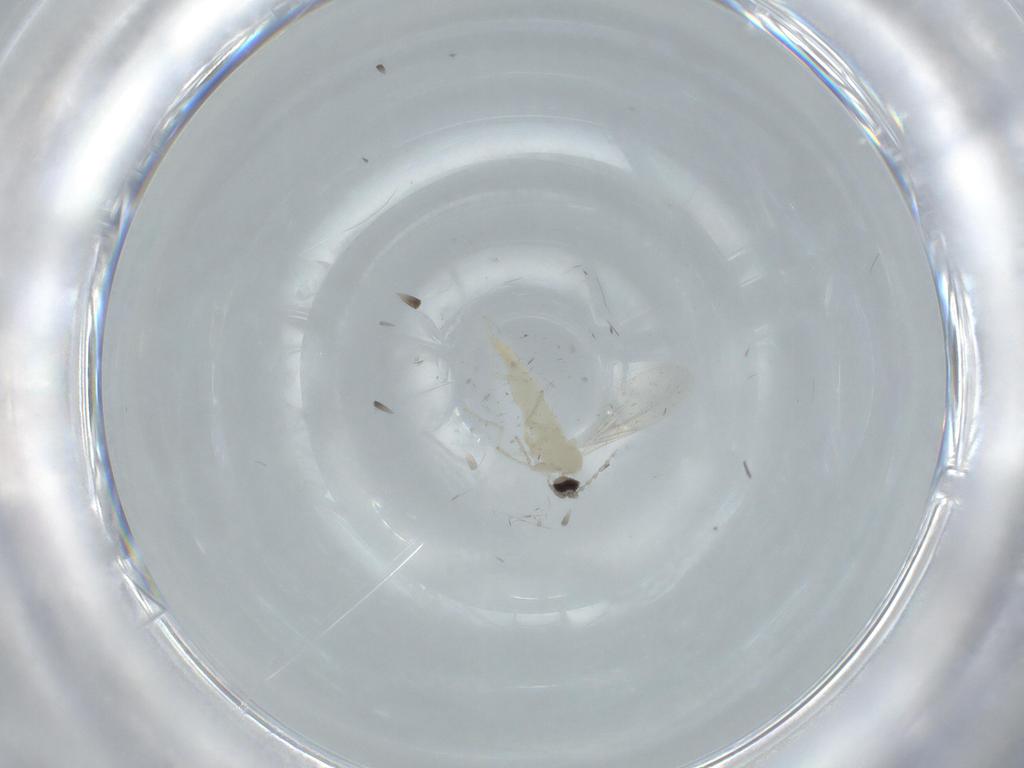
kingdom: Animalia
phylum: Arthropoda
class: Insecta
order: Diptera
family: Cecidomyiidae
